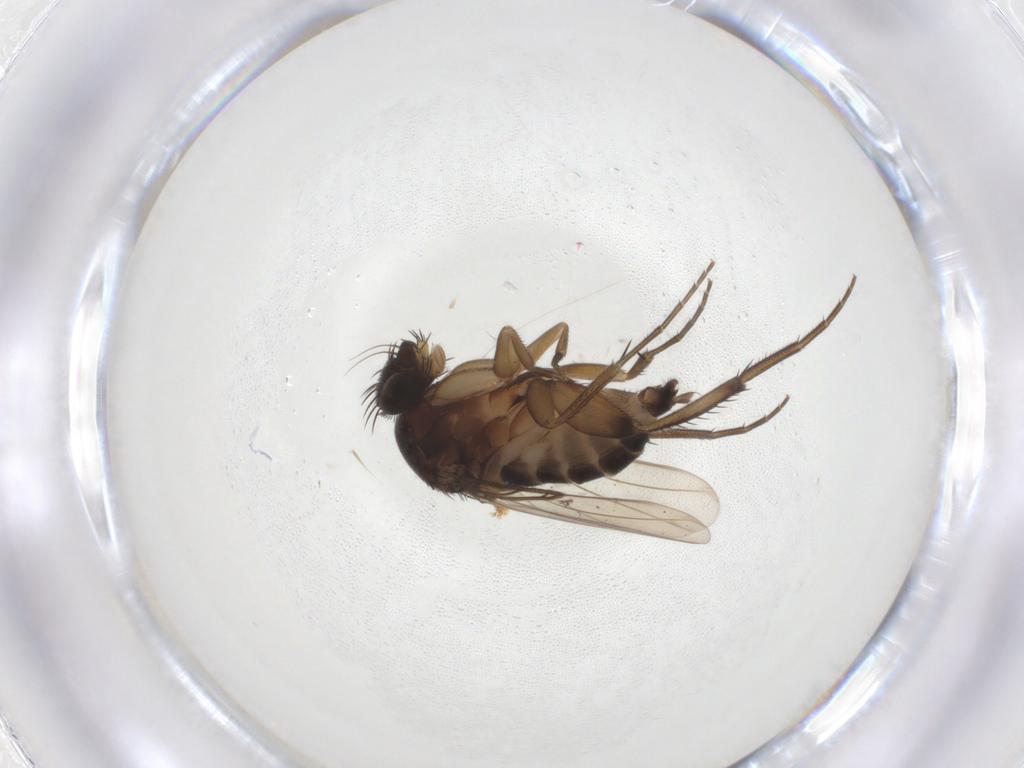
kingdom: Animalia
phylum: Arthropoda
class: Insecta
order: Diptera
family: Phoridae
